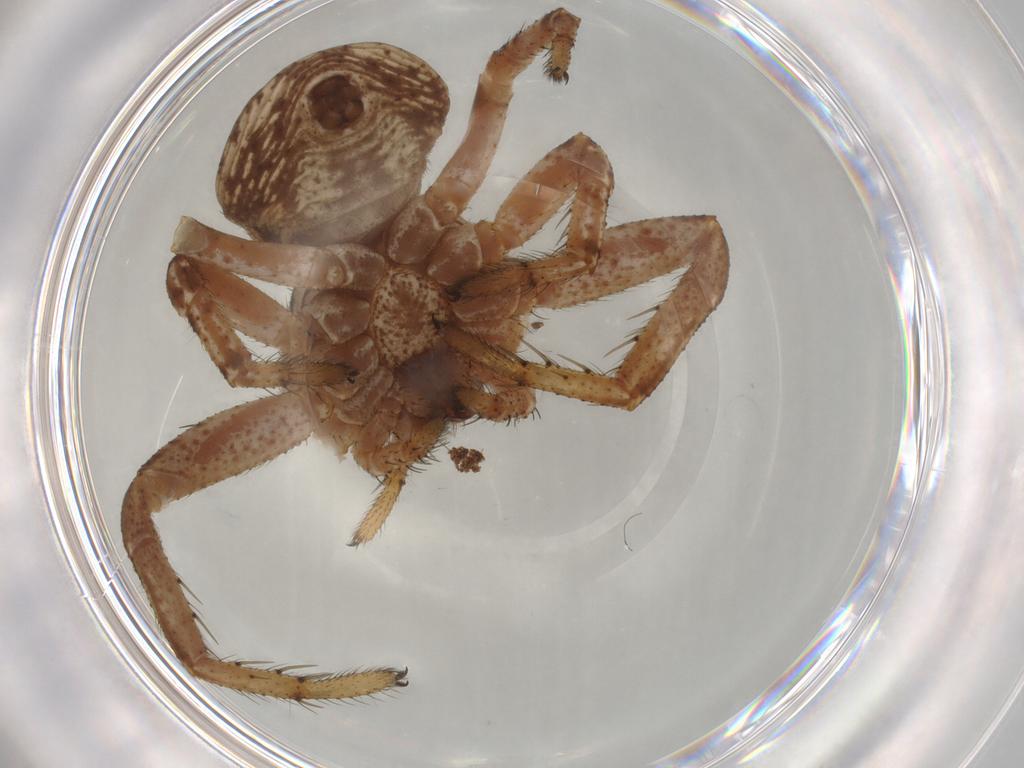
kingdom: Animalia
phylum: Arthropoda
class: Arachnida
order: Araneae
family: Thomisidae
